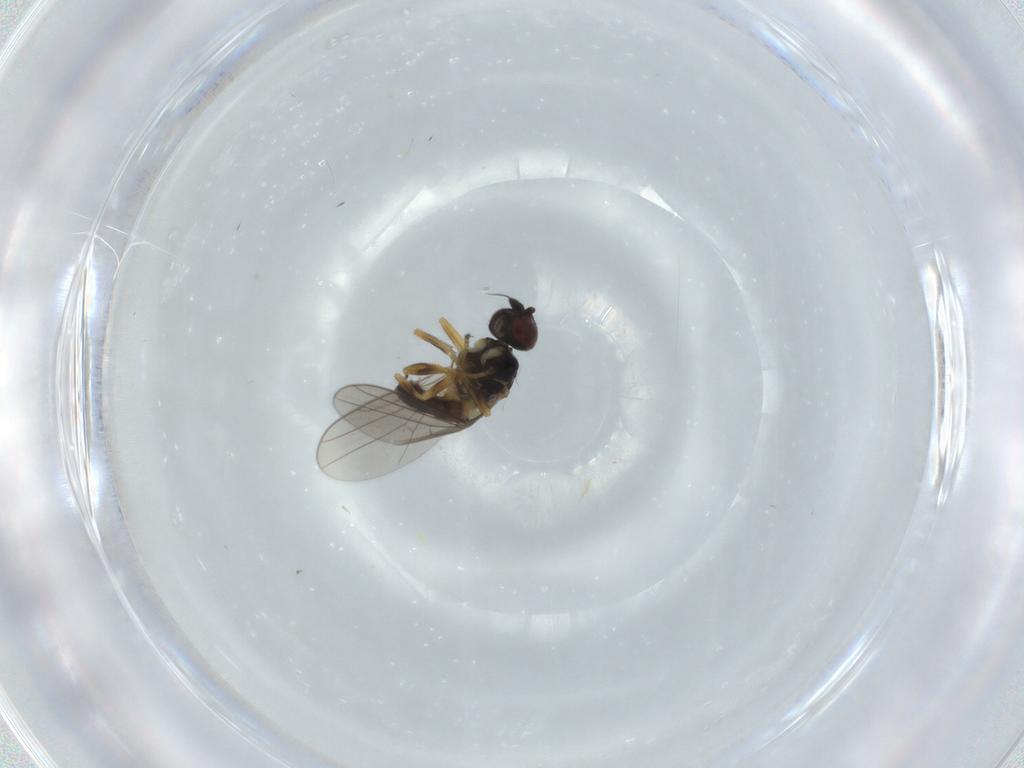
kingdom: Animalia
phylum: Arthropoda
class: Insecta
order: Diptera
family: Chloropidae
